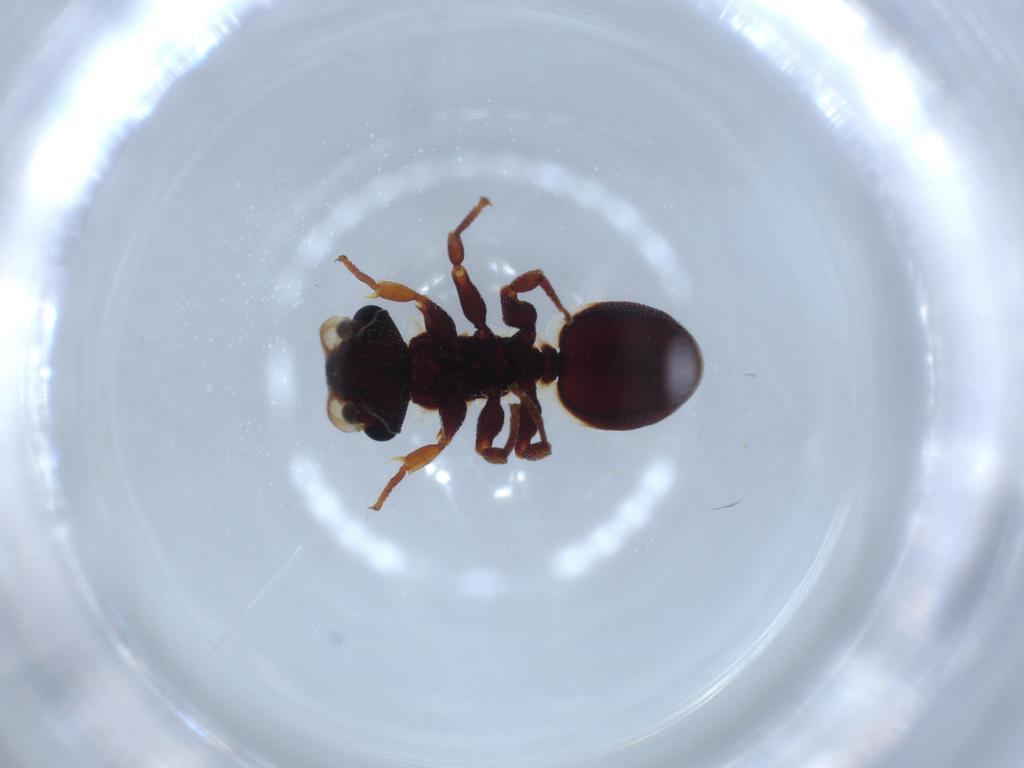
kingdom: Animalia
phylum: Arthropoda
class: Insecta
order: Hymenoptera
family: Formicidae
